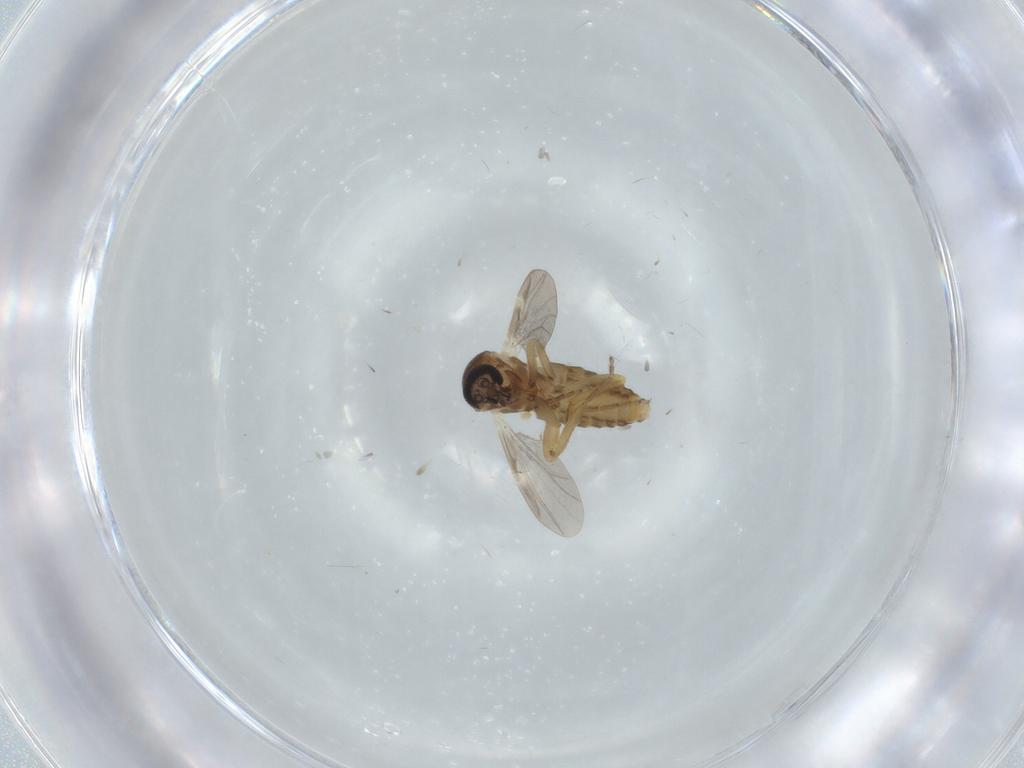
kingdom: Animalia
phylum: Arthropoda
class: Insecta
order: Diptera
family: Ceratopogonidae
